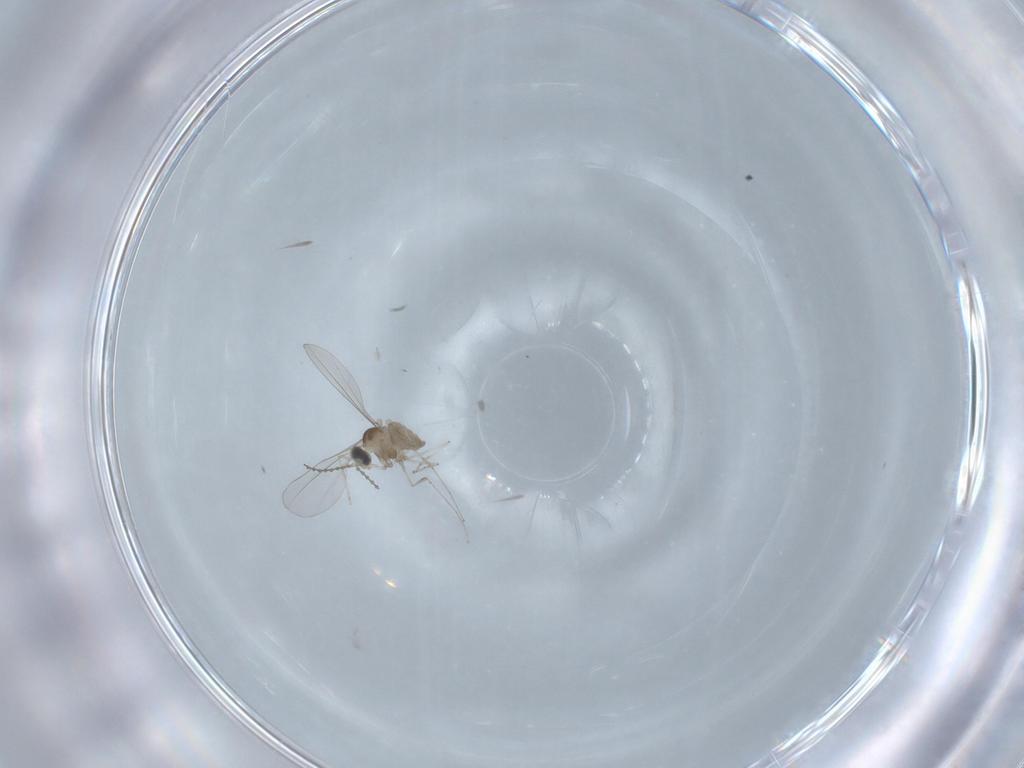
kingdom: Animalia
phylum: Arthropoda
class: Insecta
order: Diptera
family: Cecidomyiidae
